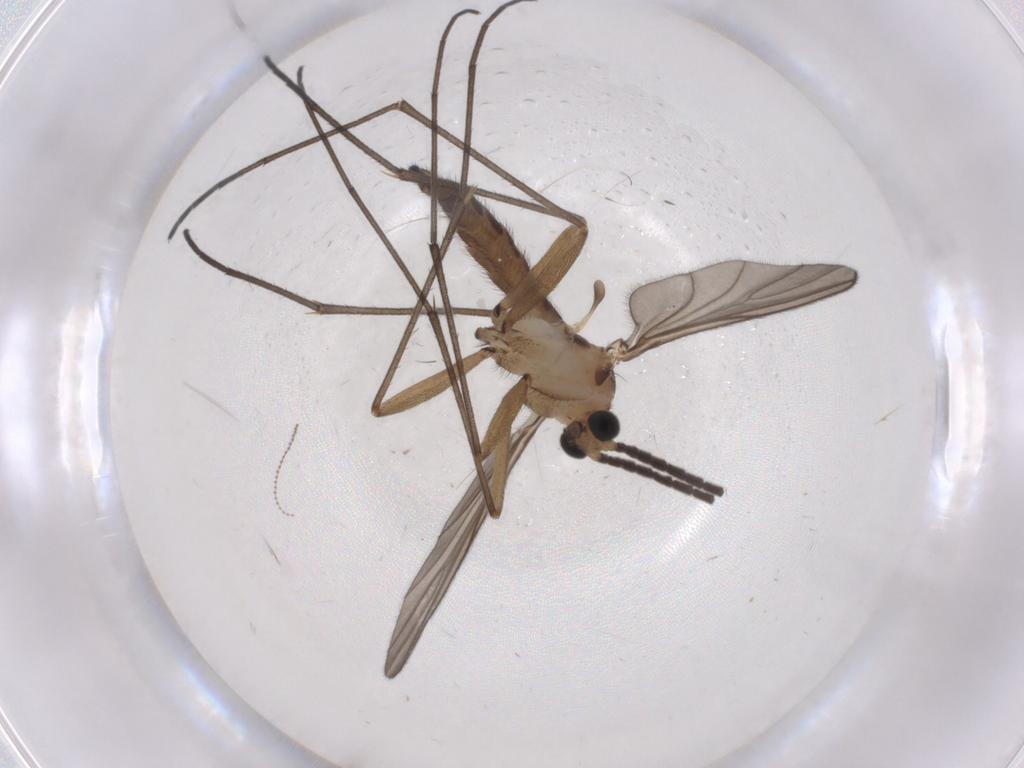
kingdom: Animalia
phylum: Arthropoda
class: Insecta
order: Diptera
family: Sciaridae
